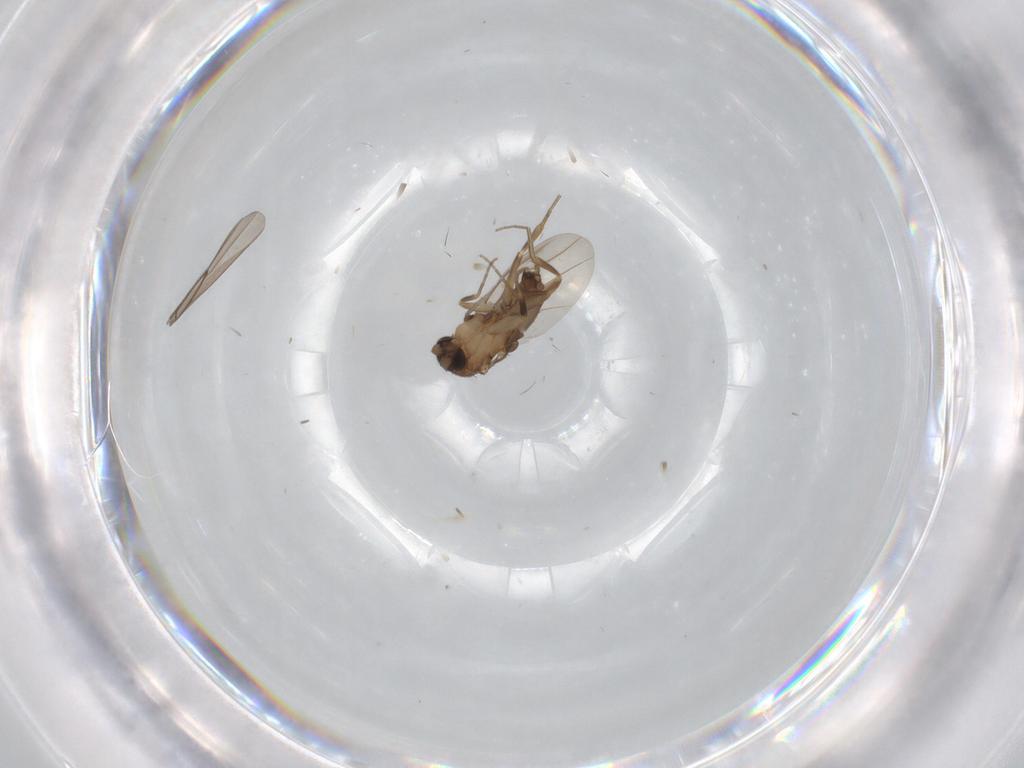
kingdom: Animalia
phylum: Arthropoda
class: Insecta
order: Diptera
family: Phoridae
